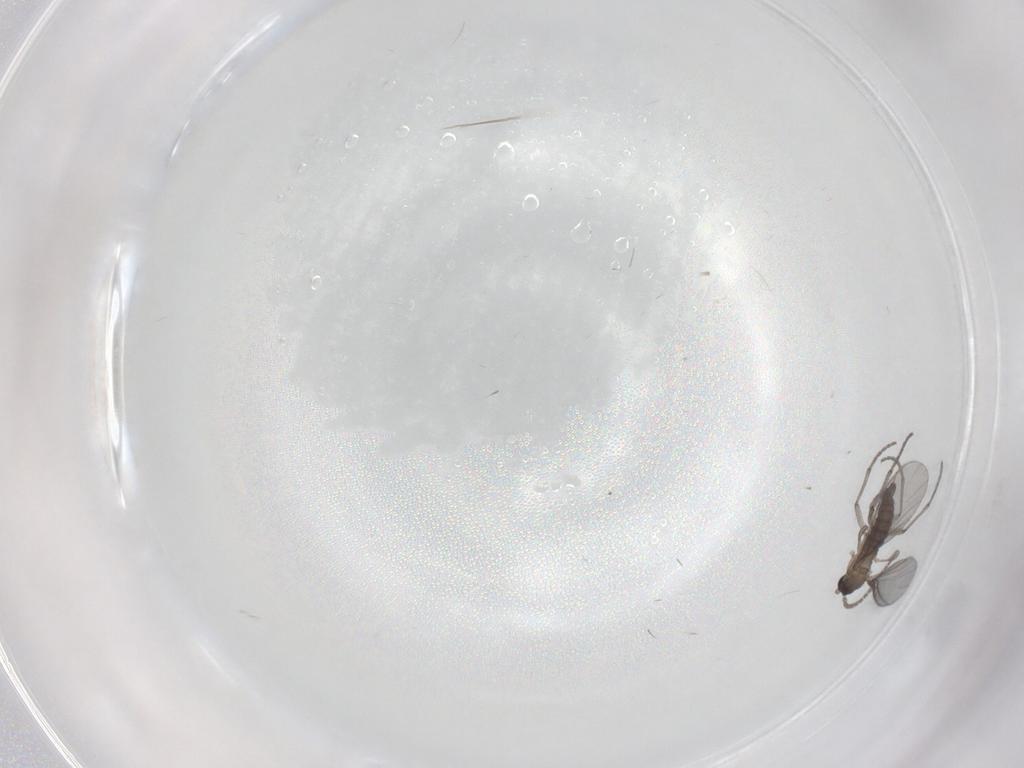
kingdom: Animalia
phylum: Arthropoda
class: Insecta
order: Diptera
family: Sciaridae
